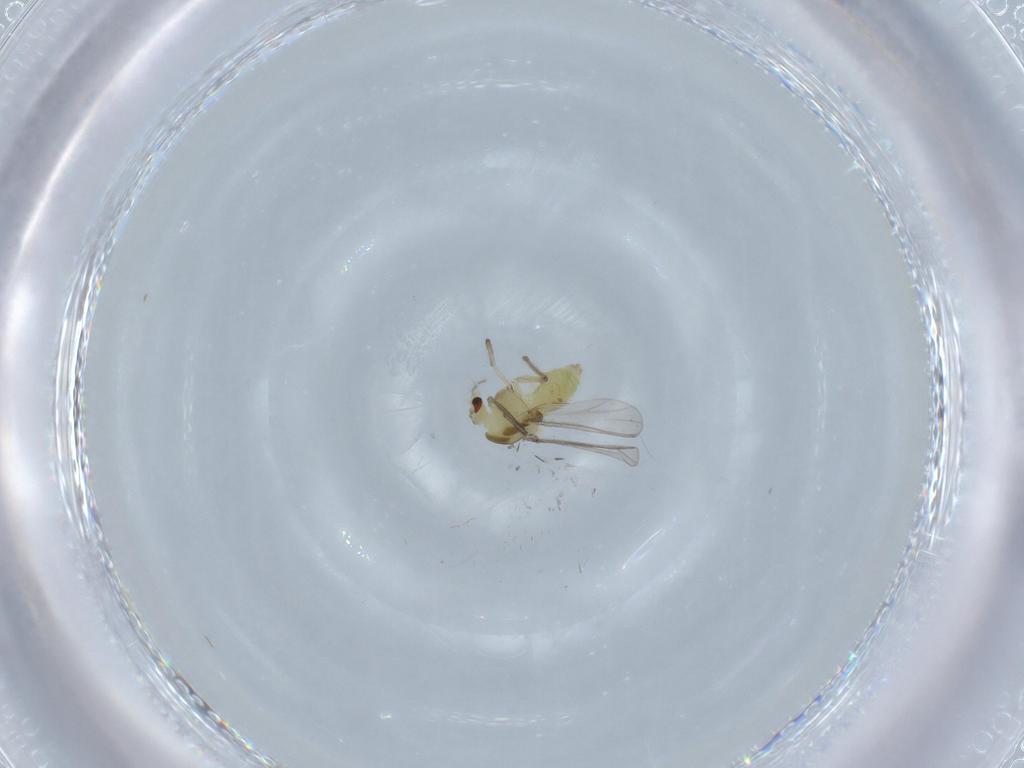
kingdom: Animalia
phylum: Arthropoda
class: Insecta
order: Diptera
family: Chironomidae
